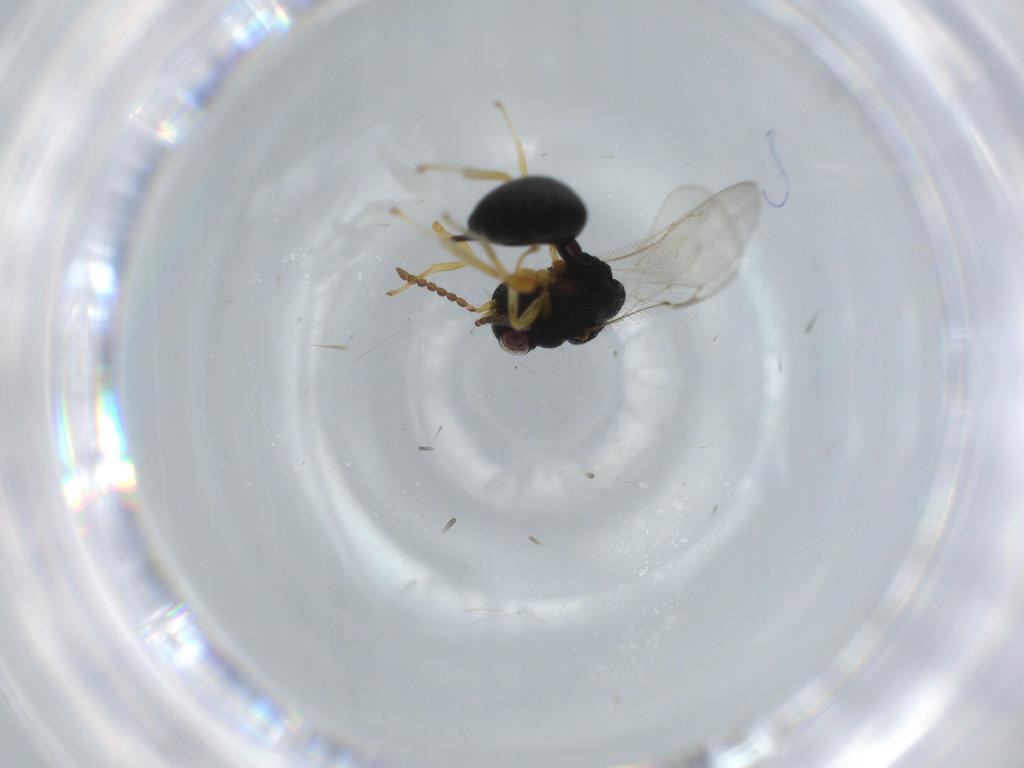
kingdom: Animalia
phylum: Arthropoda
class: Insecta
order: Hymenoptera
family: Eurytomidae
